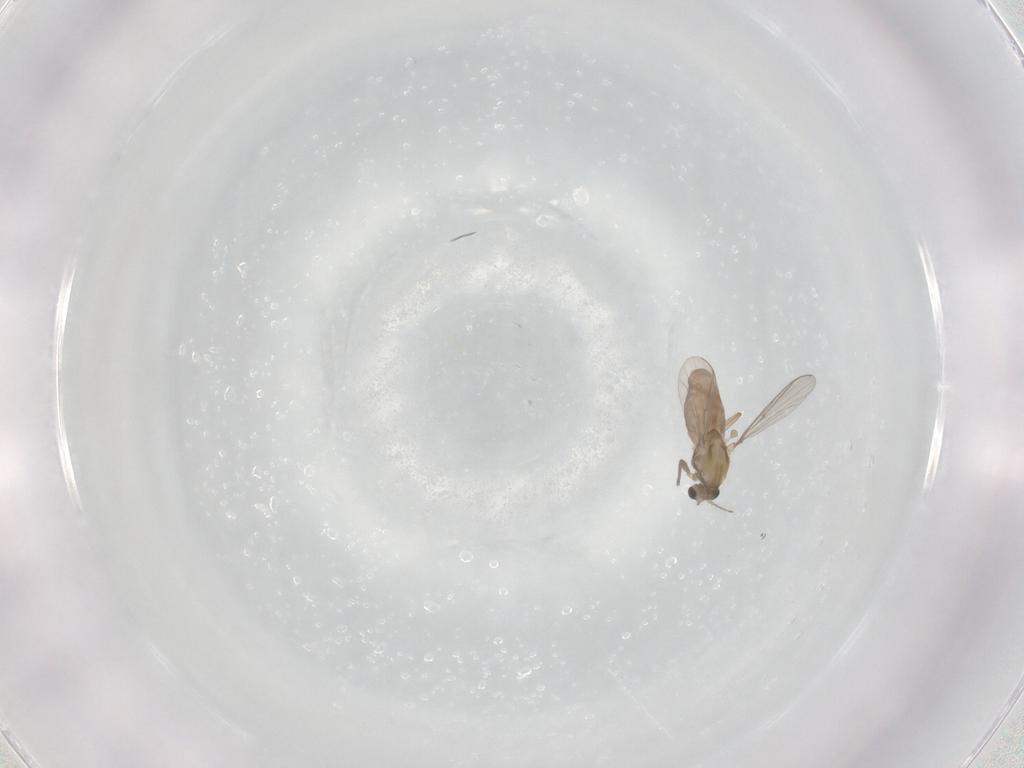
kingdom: Animalia
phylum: Arthropoda
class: Insecta
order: Diptera
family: Chironomidae
